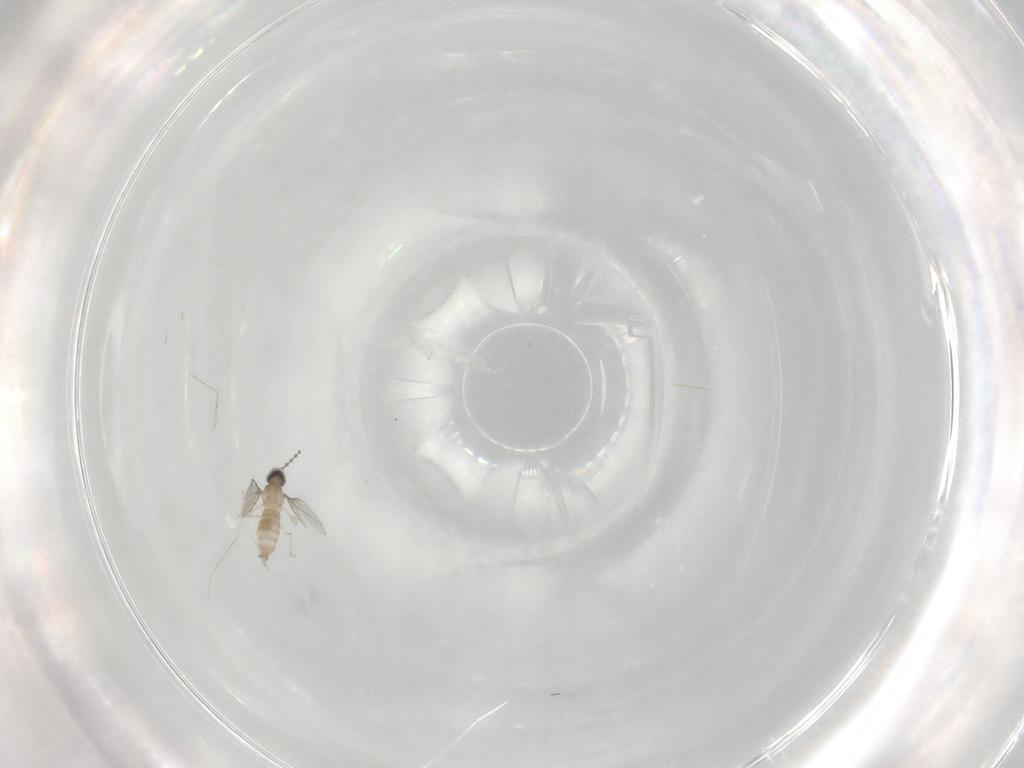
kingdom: Animalia
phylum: Arthropoda
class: Insecta
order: Diptera
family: Cecidomyiidae
